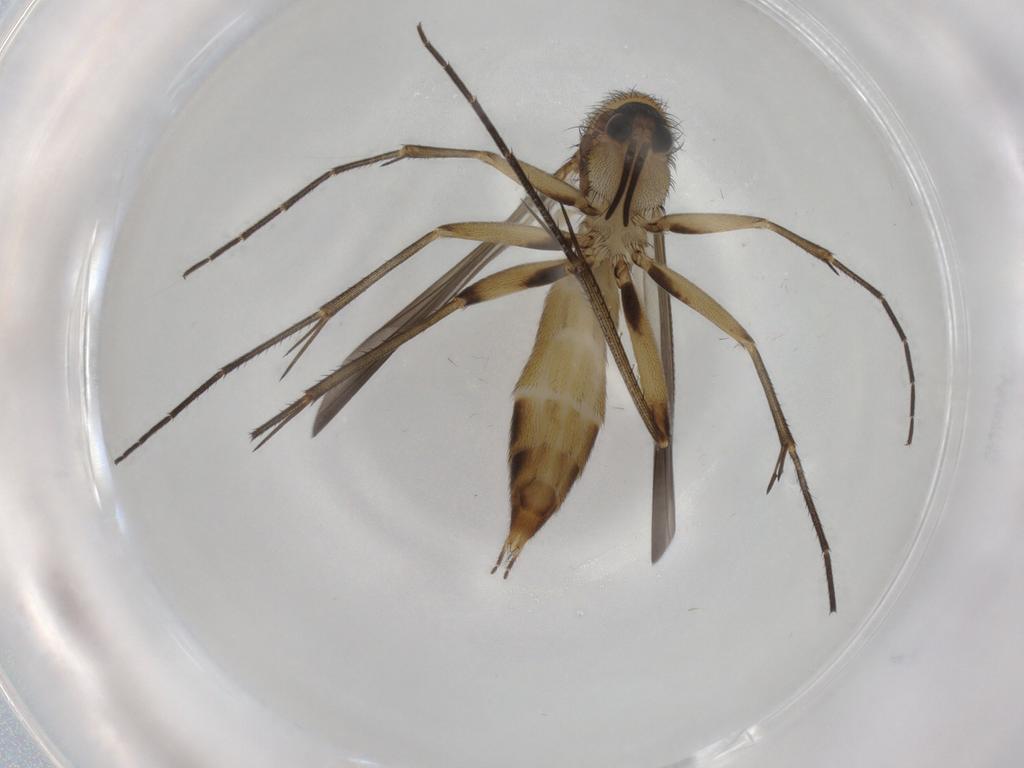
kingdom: Animalia
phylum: Arthropoda
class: Insecta
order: Diptera
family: Mycetophilidae
